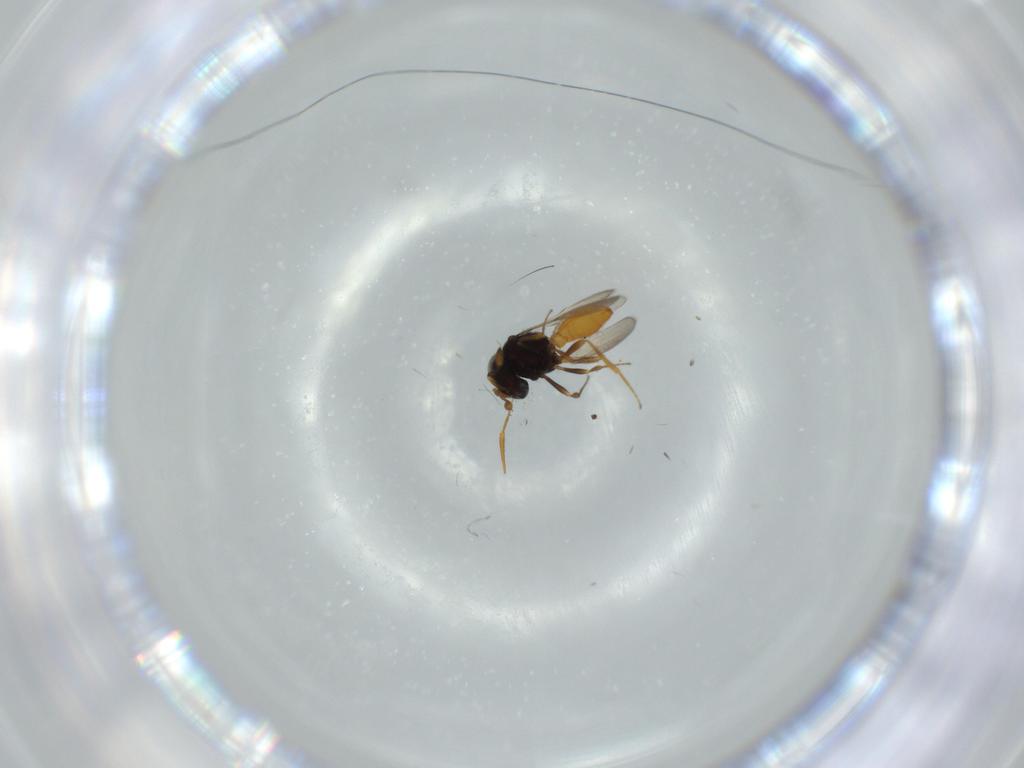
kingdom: Animalia
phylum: Arthropoda
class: Insecta
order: Hymenoptera
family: Scelionidae
